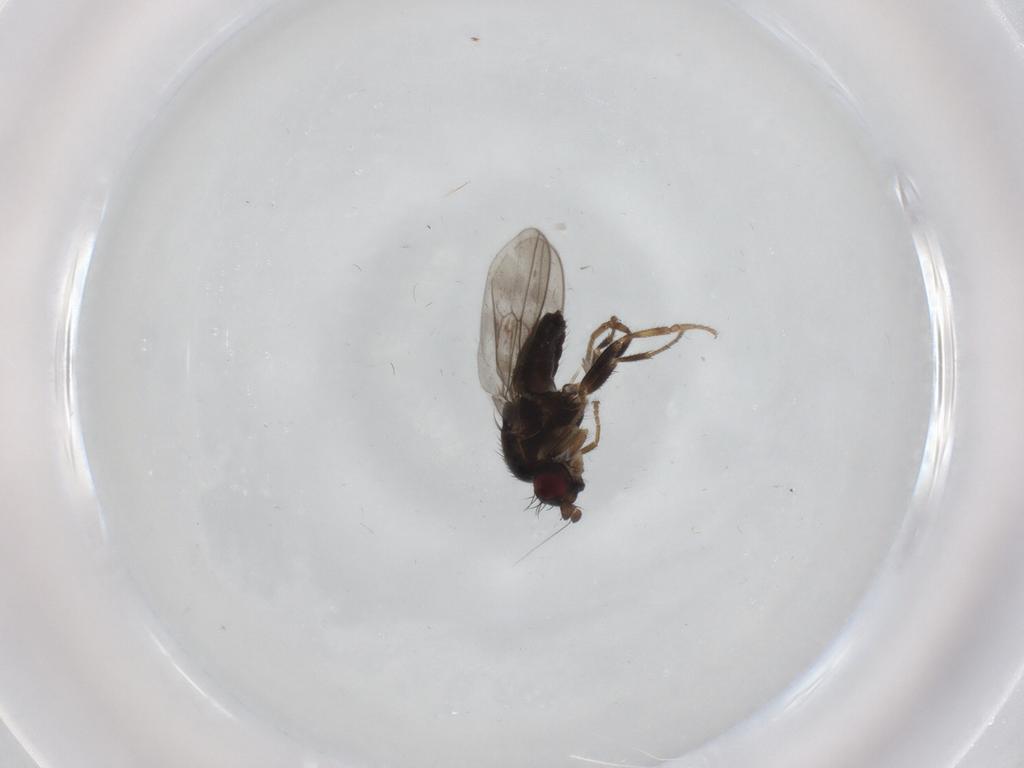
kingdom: Animalia
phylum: Arthropoda
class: Insecta
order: Diptera
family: Sphaeroceridae
